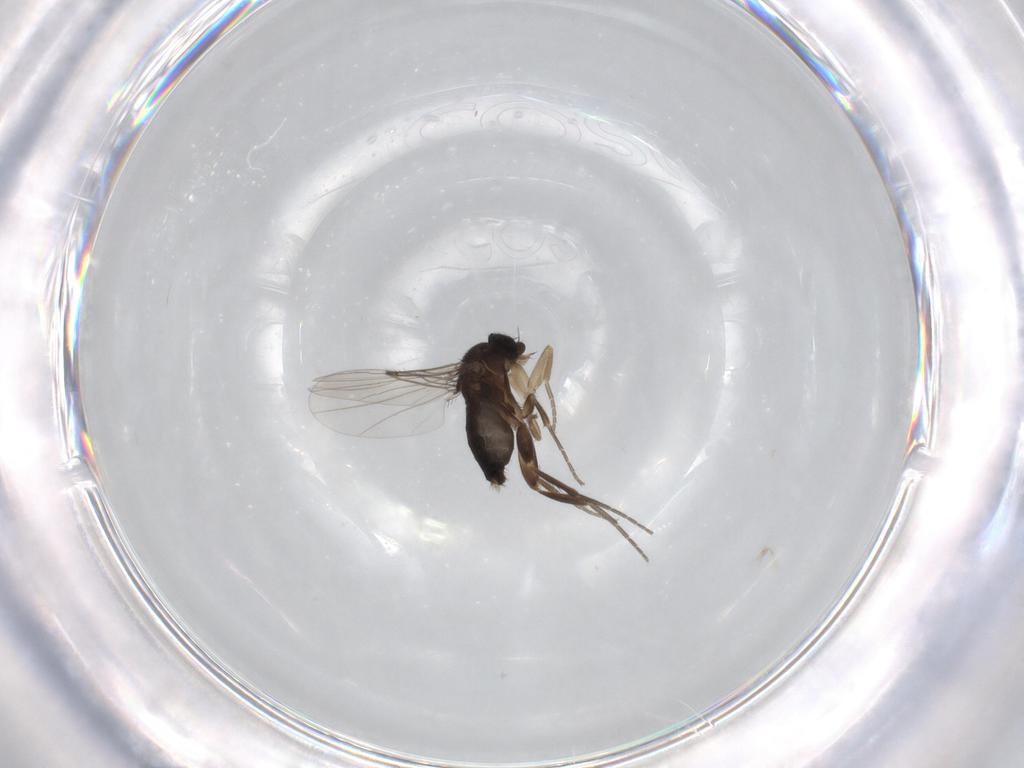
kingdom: Animalia
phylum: Arthropoda
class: Insecta
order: Diptera
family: Phoridae
